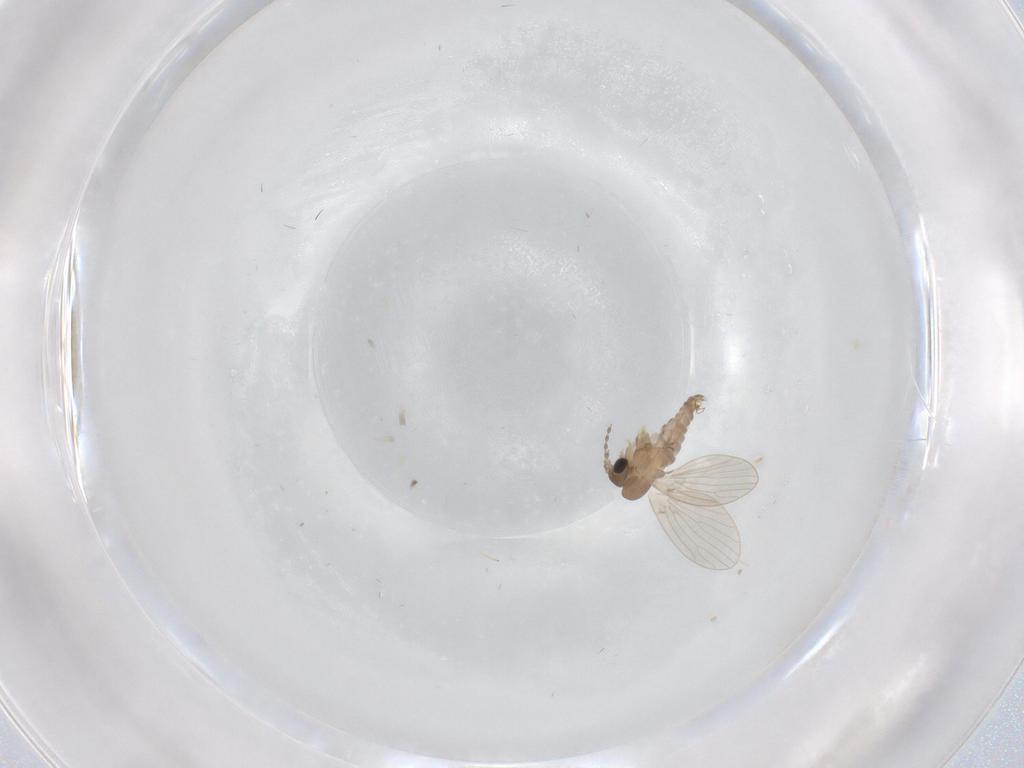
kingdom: Animalia
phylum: Arthropoda
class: Insecta
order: Diptera
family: Psychodidae
